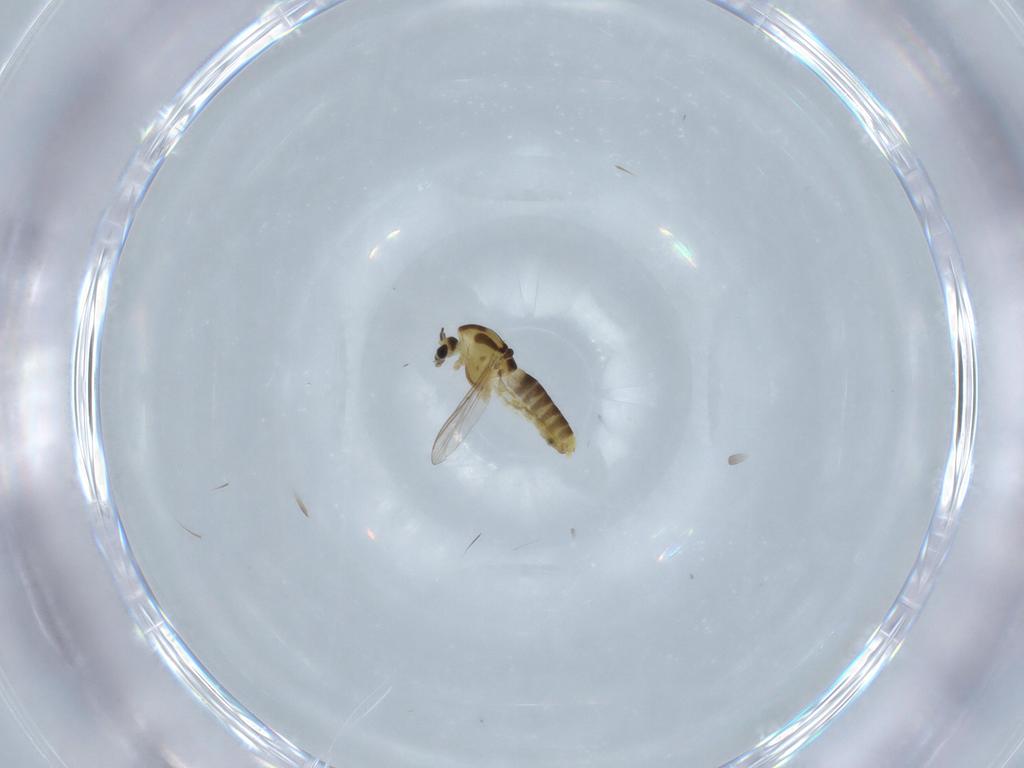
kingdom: Animalia
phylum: Arthropoda
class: Insecta
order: Diptera
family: Chironomidae
